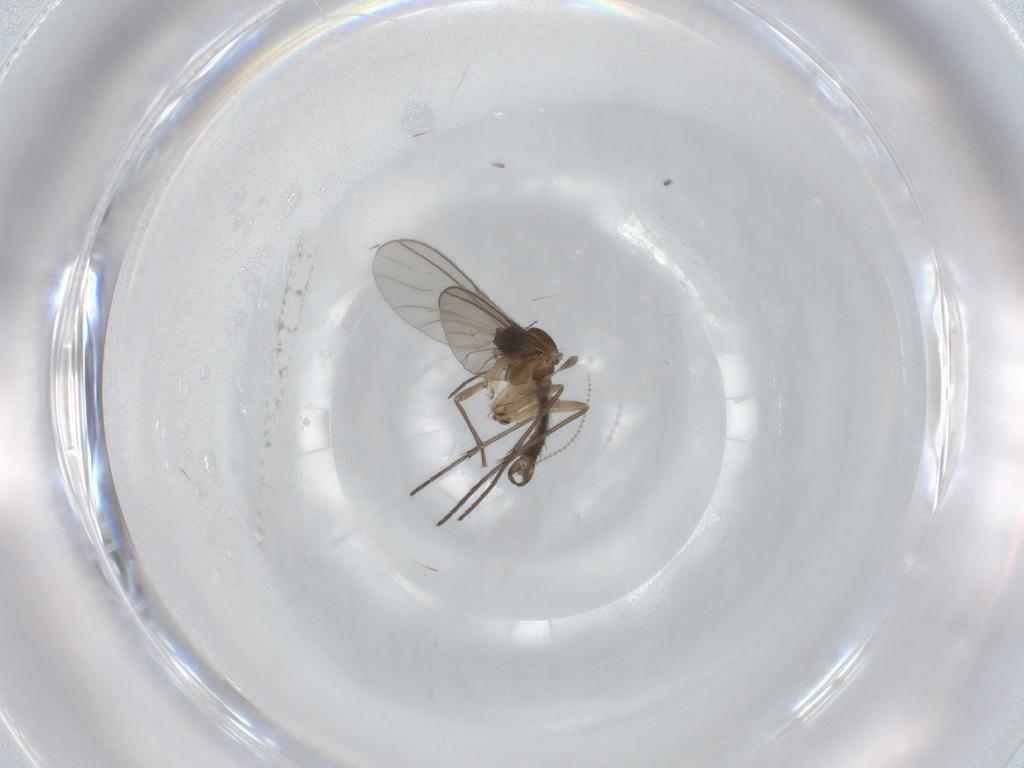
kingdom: Animalia
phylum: Arthropoda
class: Insecta
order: Diptera
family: Sciaridae
